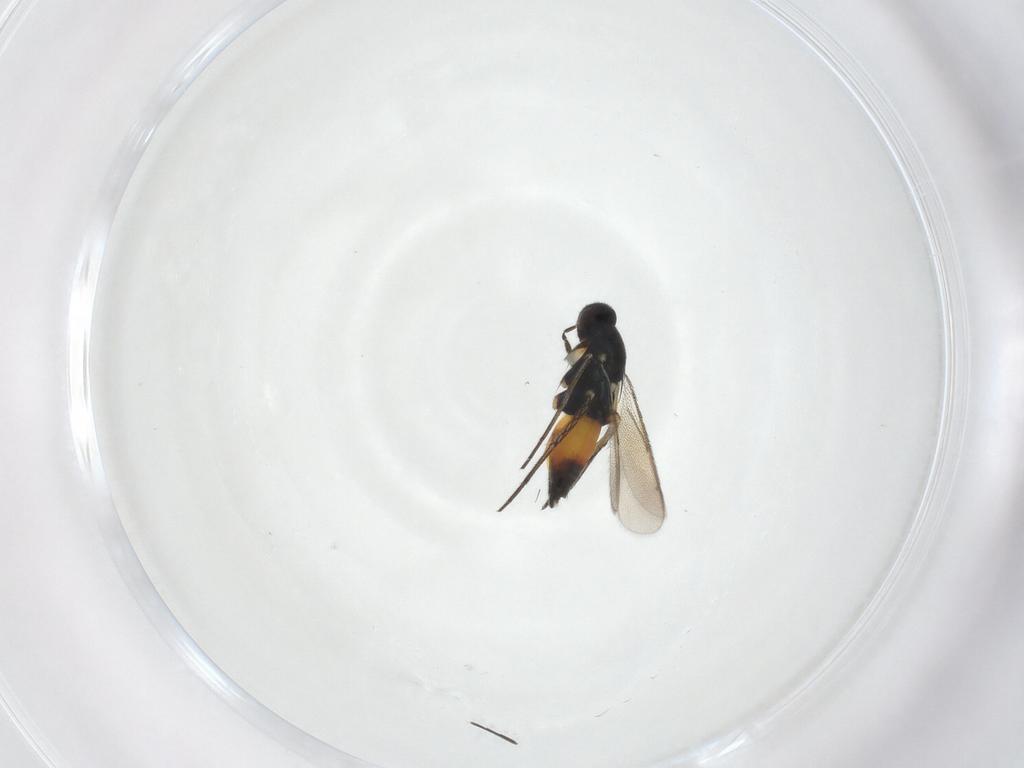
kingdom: Animalia
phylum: Arthropoda
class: Insecta
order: Hymenoptera
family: Eulophidae
